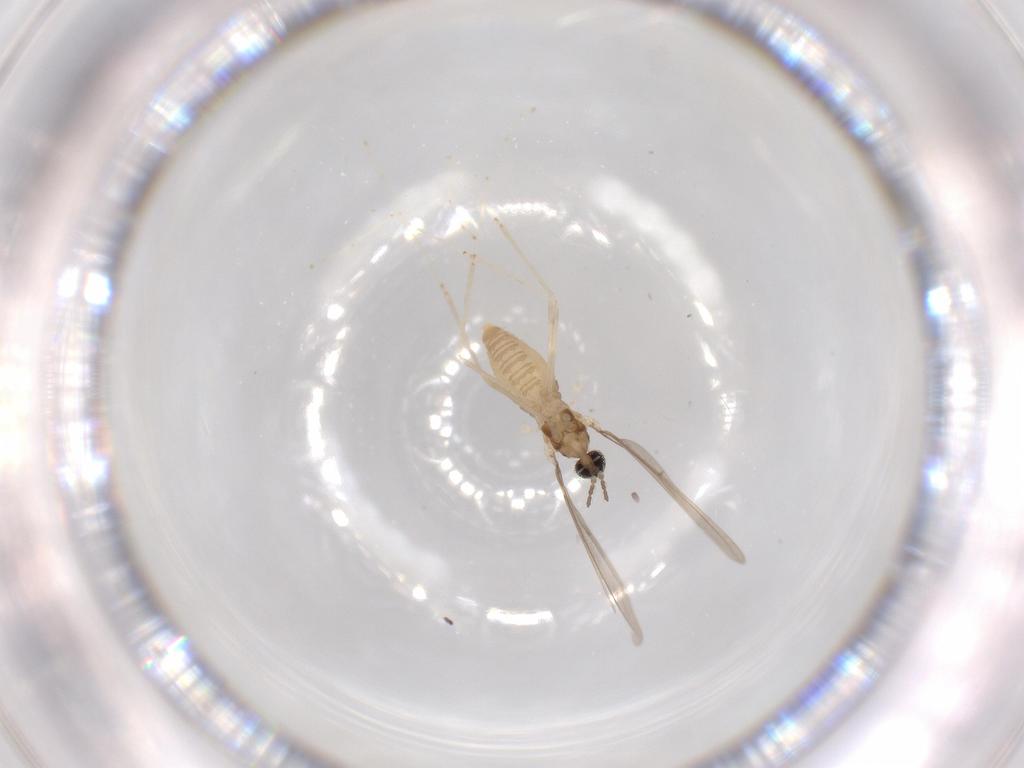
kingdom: Animalia
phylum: Arthropoda
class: Insecta
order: Diptera
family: Cecidomyiidae
